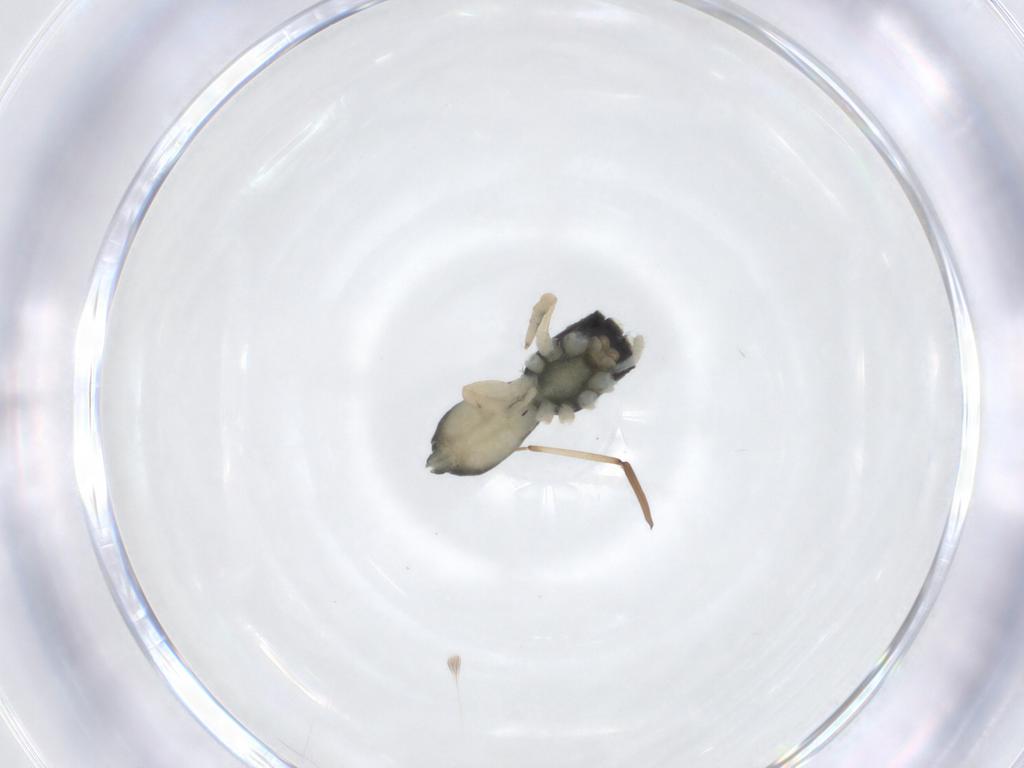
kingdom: Animalia
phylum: Arthropoda
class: Arachnida
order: Araneae
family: Salticidae
